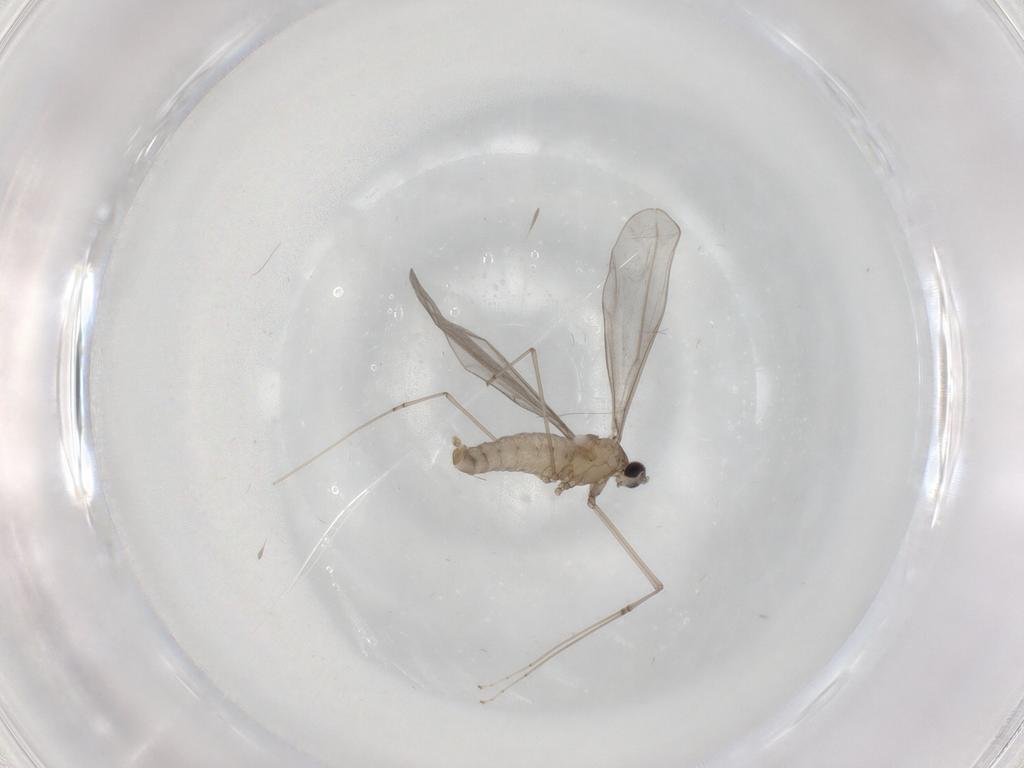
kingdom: Animalia
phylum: Arthropoda
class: Insecta
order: Diptera
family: Cecidomyiidae
